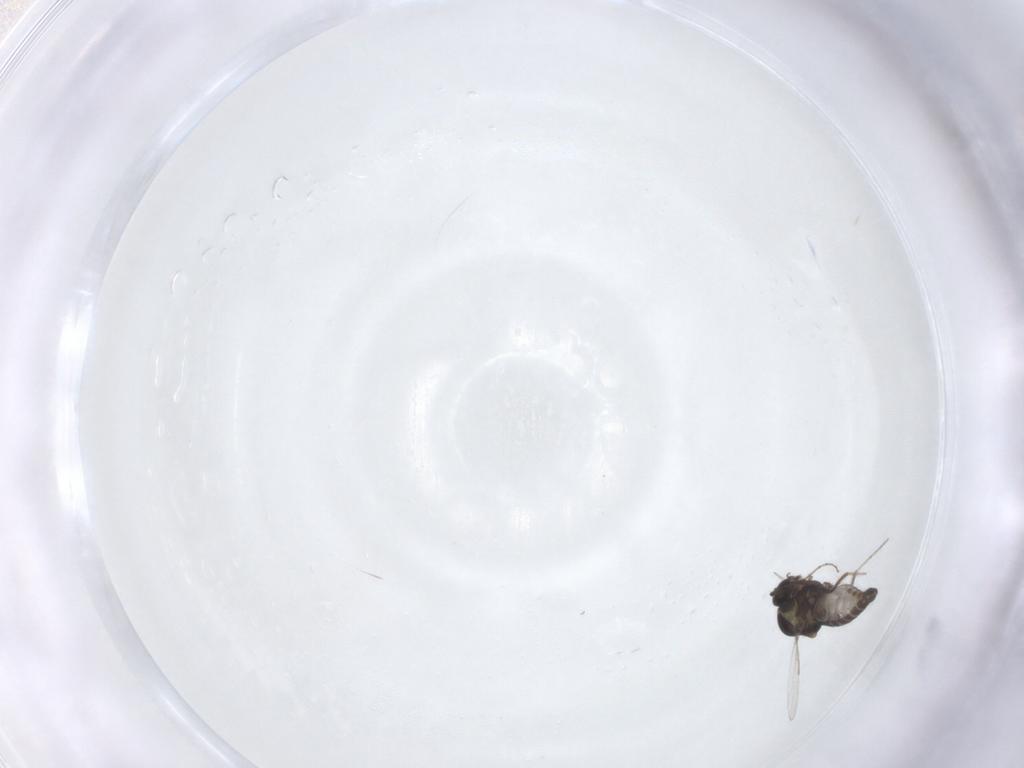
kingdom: Animalia
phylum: Arthropoda
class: Insecta
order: Diptera
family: Ceratopogonidae
